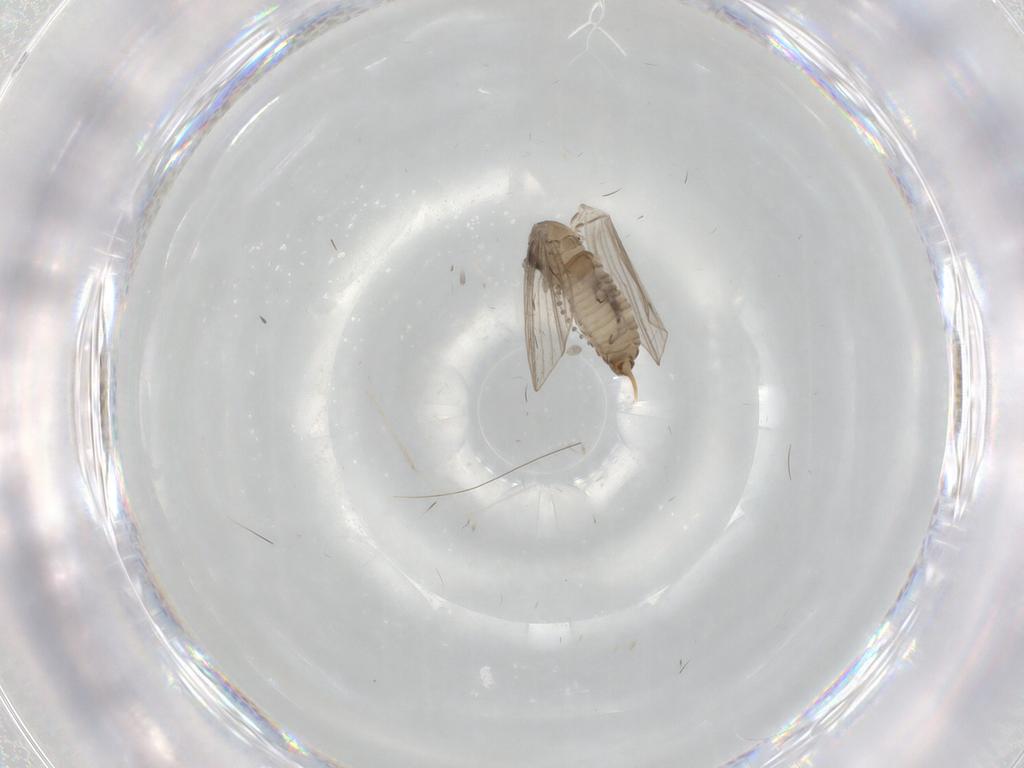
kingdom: Animalia
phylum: Arthropoda
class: Insecta
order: Diptera
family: Psychodidae
